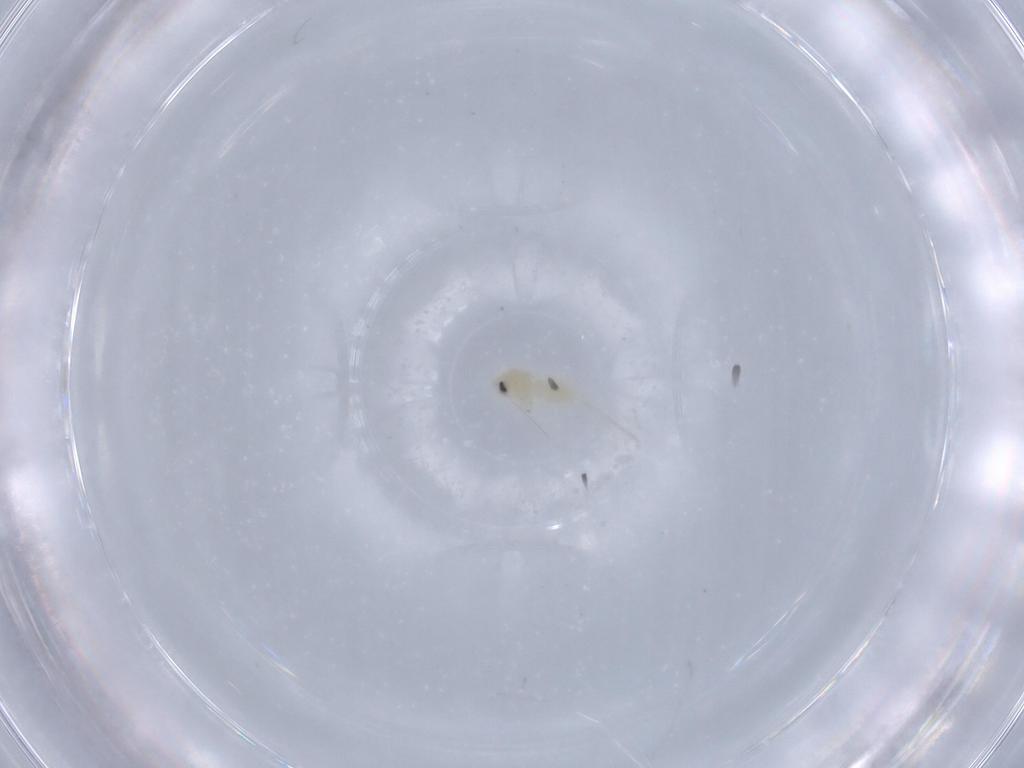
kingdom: Animalia
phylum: Arthropoda
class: Insecta
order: Hemiptera
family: Aleyrodidae
